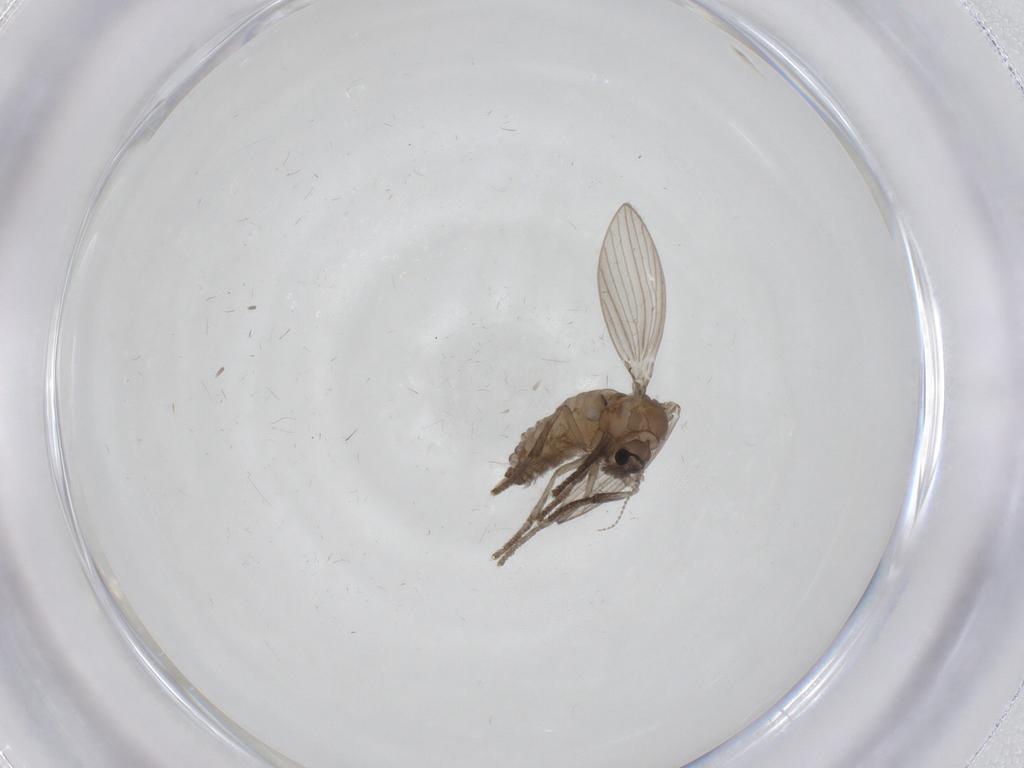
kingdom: Animalia
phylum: Arthropoda
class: Insecta
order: Diptera
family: Psychodidae
